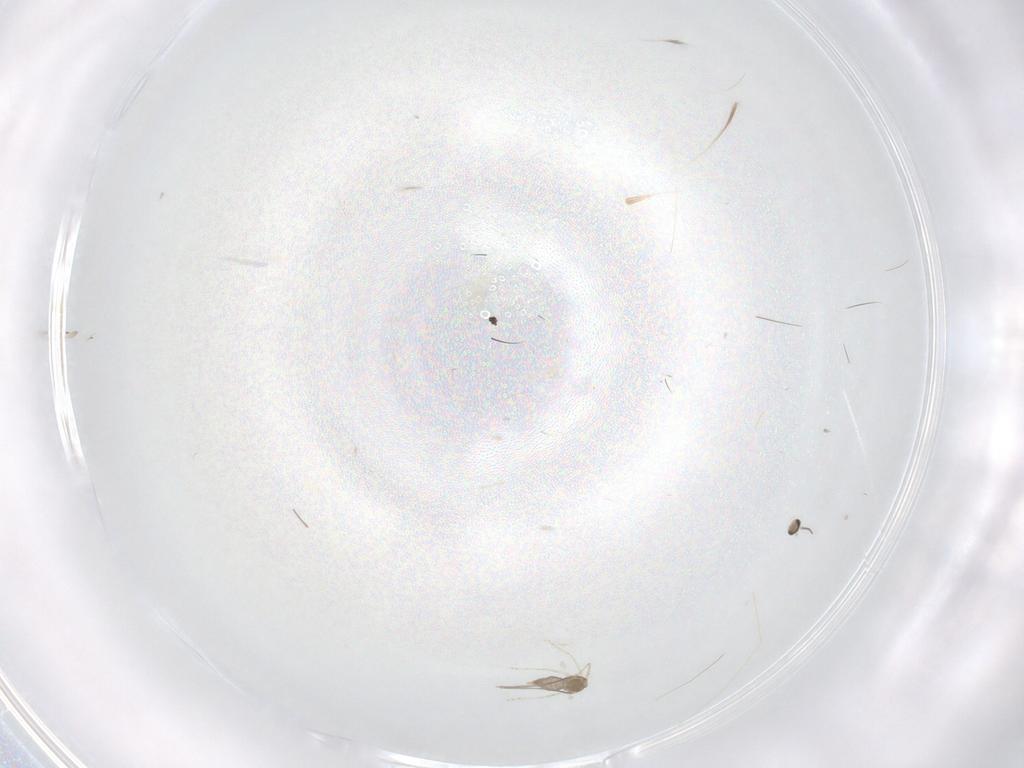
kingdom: Animalia
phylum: Arthropoda
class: Insecta
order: Diptera
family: Cecidomyiidae
